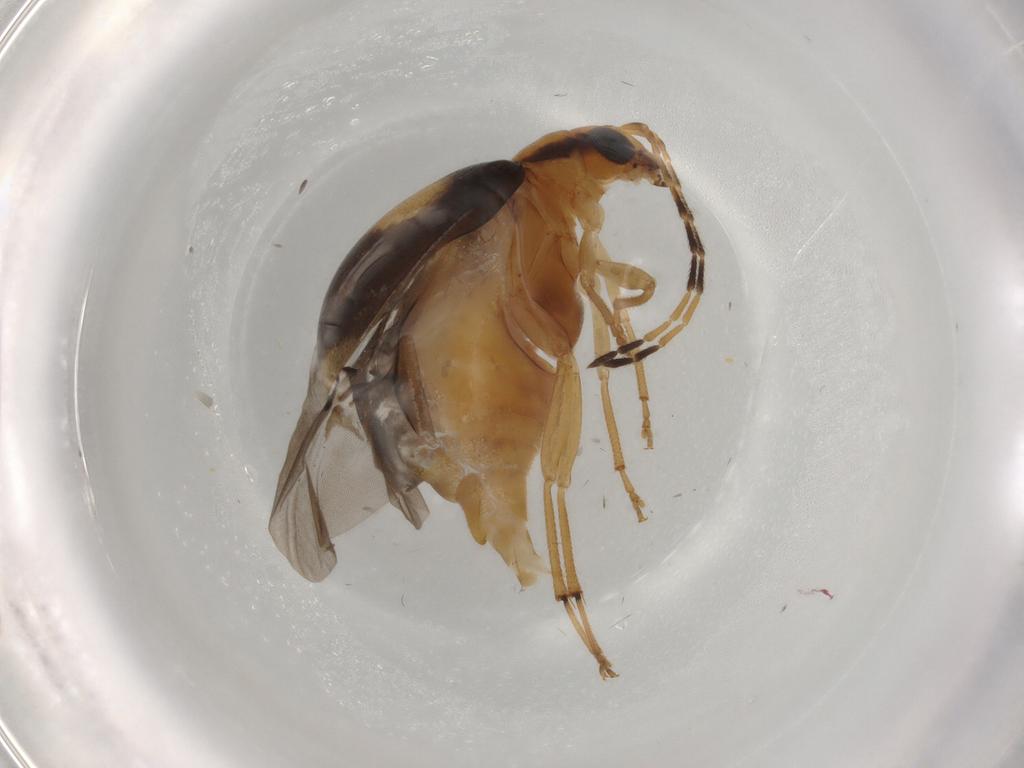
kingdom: Animalia
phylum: Arthropoda
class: Insecta
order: Coleoptera
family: Chrysomelidae
